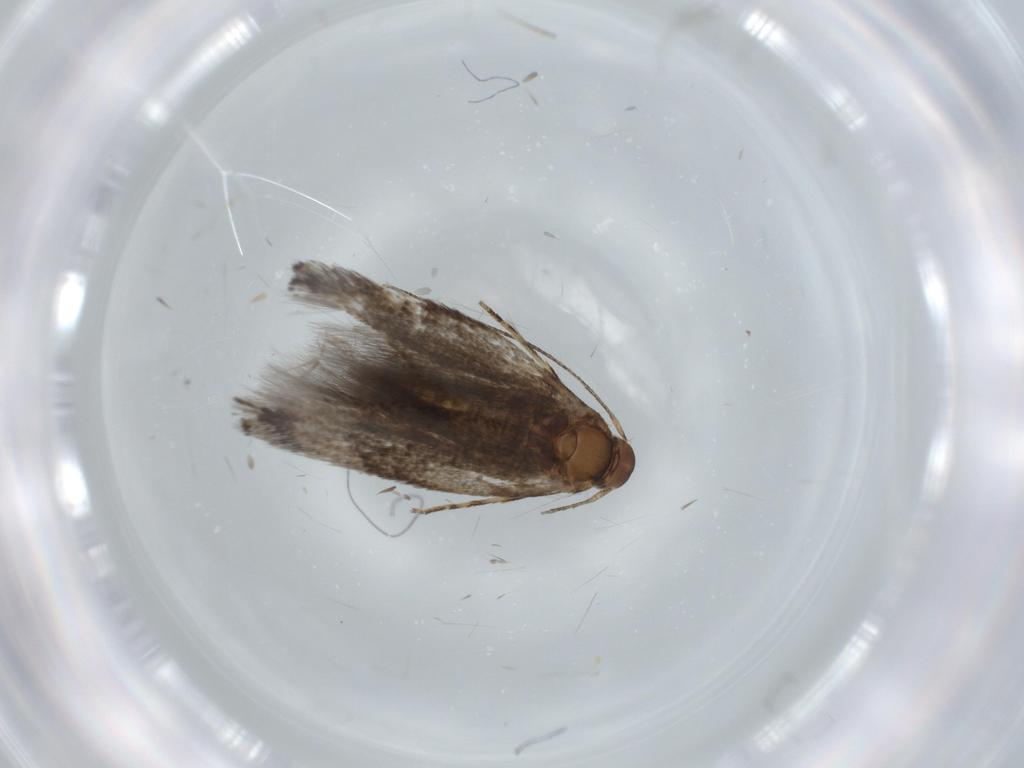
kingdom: Animalia
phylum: Arthropoda
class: Insecta
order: Lepidoptera
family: Elachistidae
